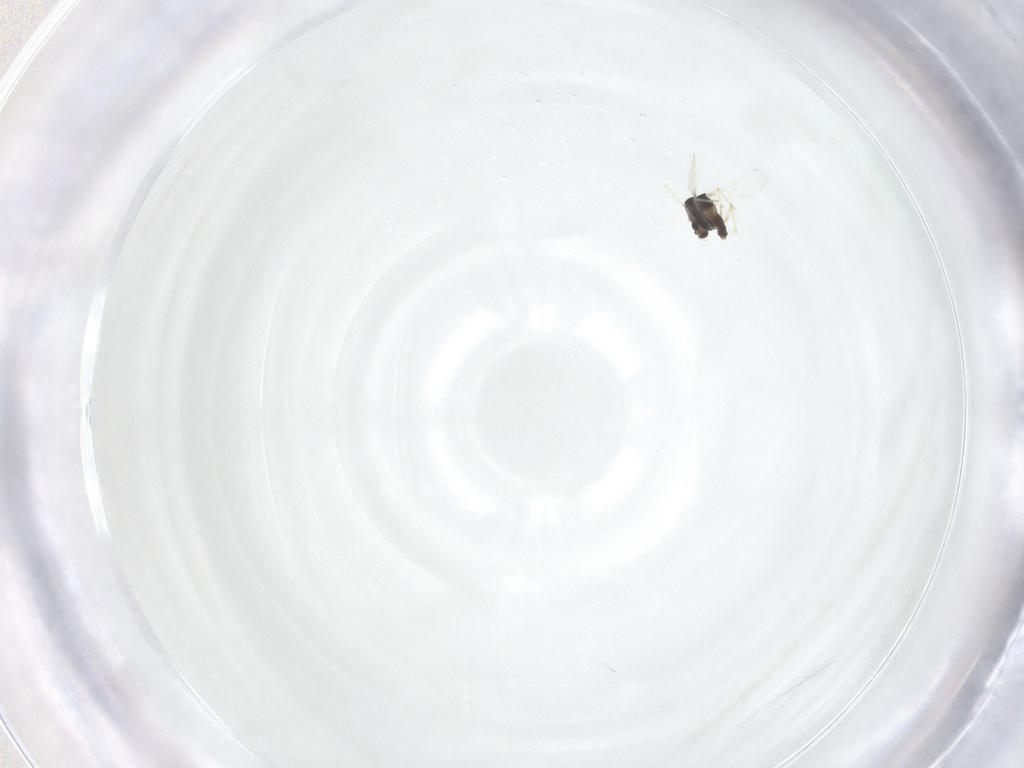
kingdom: Animalia
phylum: Arthropoda
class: Insecta
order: Diptera
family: Chironomidae
